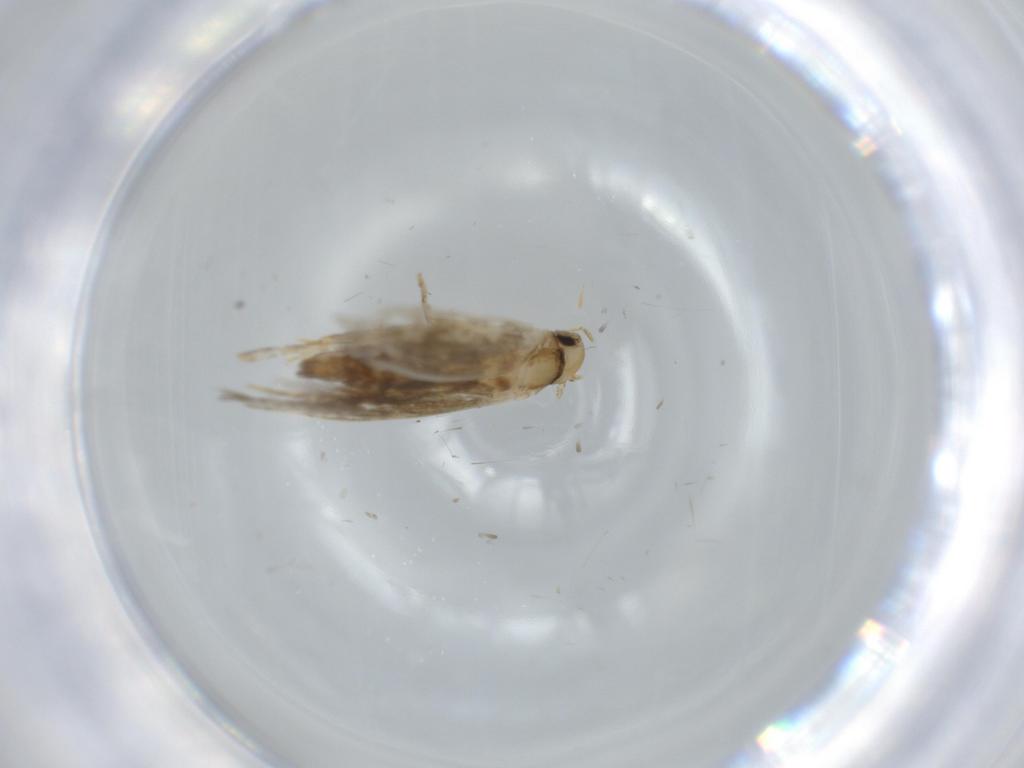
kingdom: Animalia
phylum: Arthropoda
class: Insecta
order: Lepidoptera
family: Tineidae
